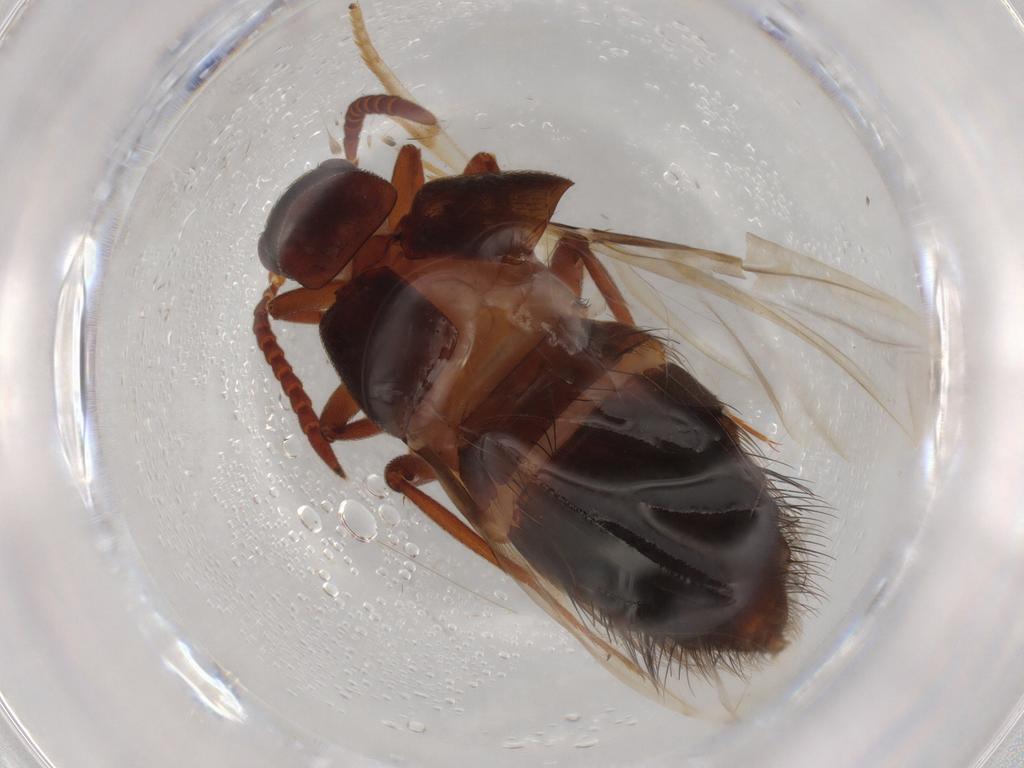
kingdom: Animalia
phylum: Arthropoda
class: Insecta
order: Coleoptera
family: Staphylinidae
